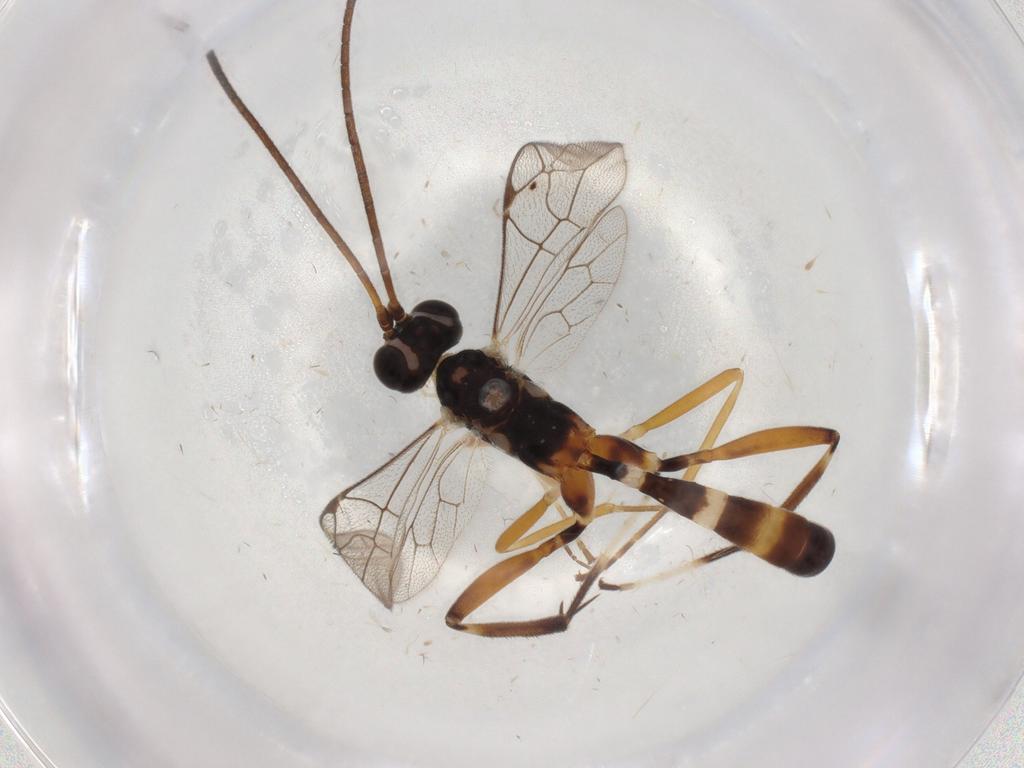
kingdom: Animalia
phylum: Arthropoda
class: Insecta
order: Hymenoptera
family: Ichneumonidae
